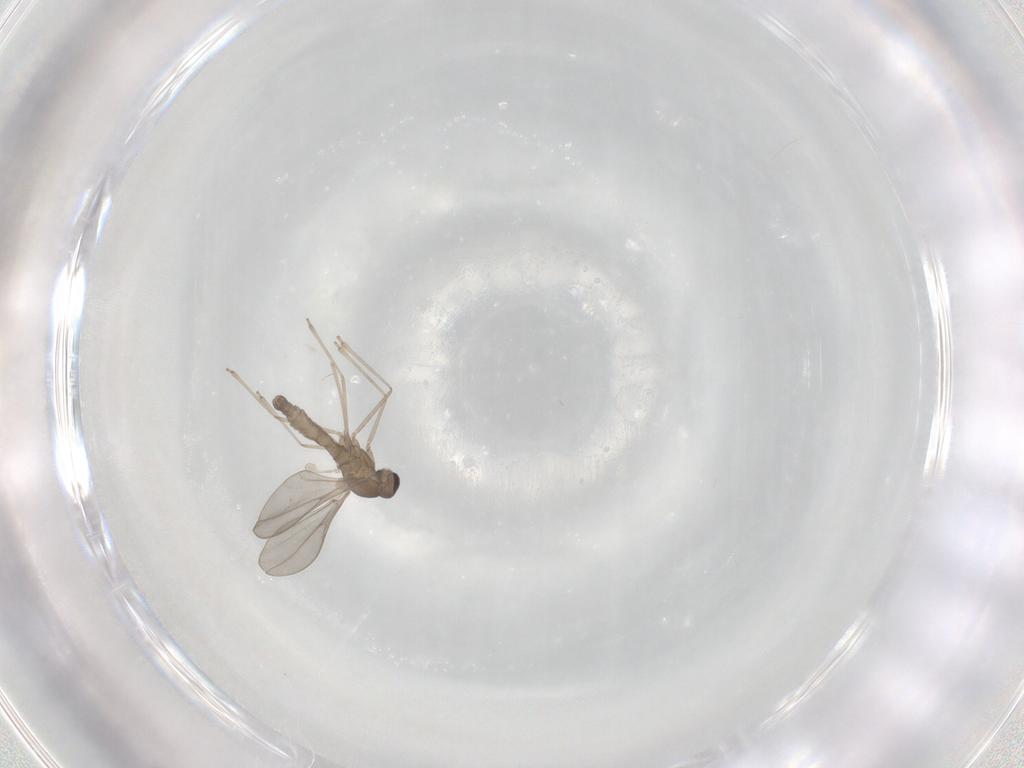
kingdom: Animalia
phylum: Arthropoda
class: Insecta
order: Diptera
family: Cecidomyiidae
